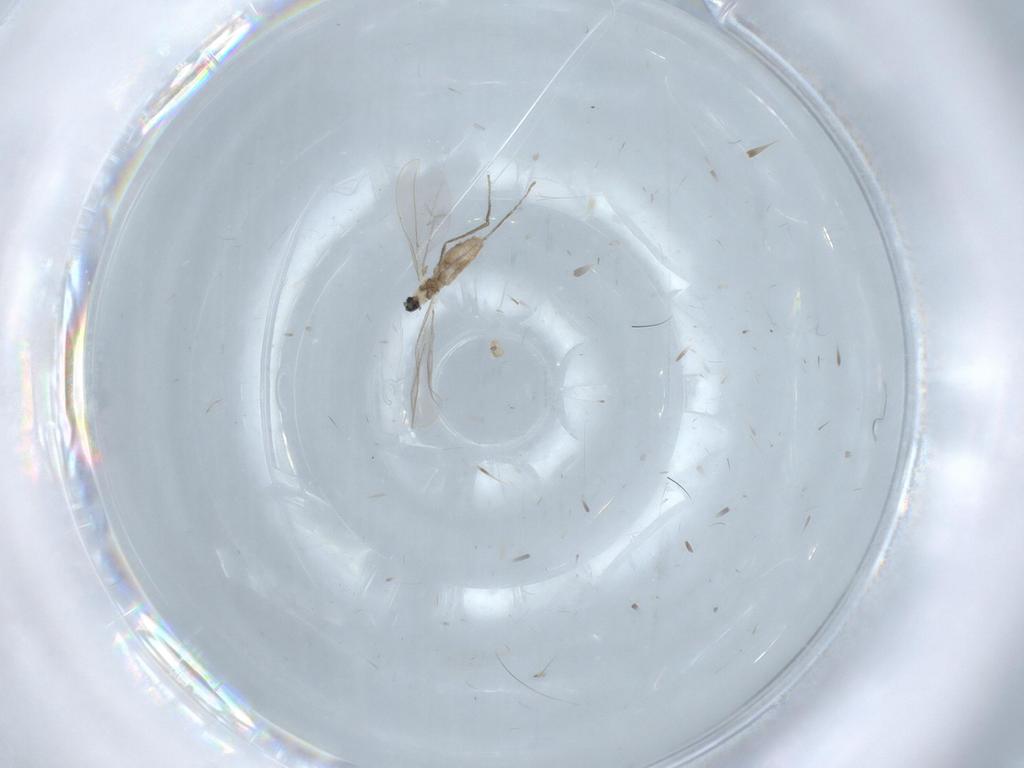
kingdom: Animalia
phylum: Arthropoda
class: Insecta
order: Diptera
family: Cecidomyiidae
